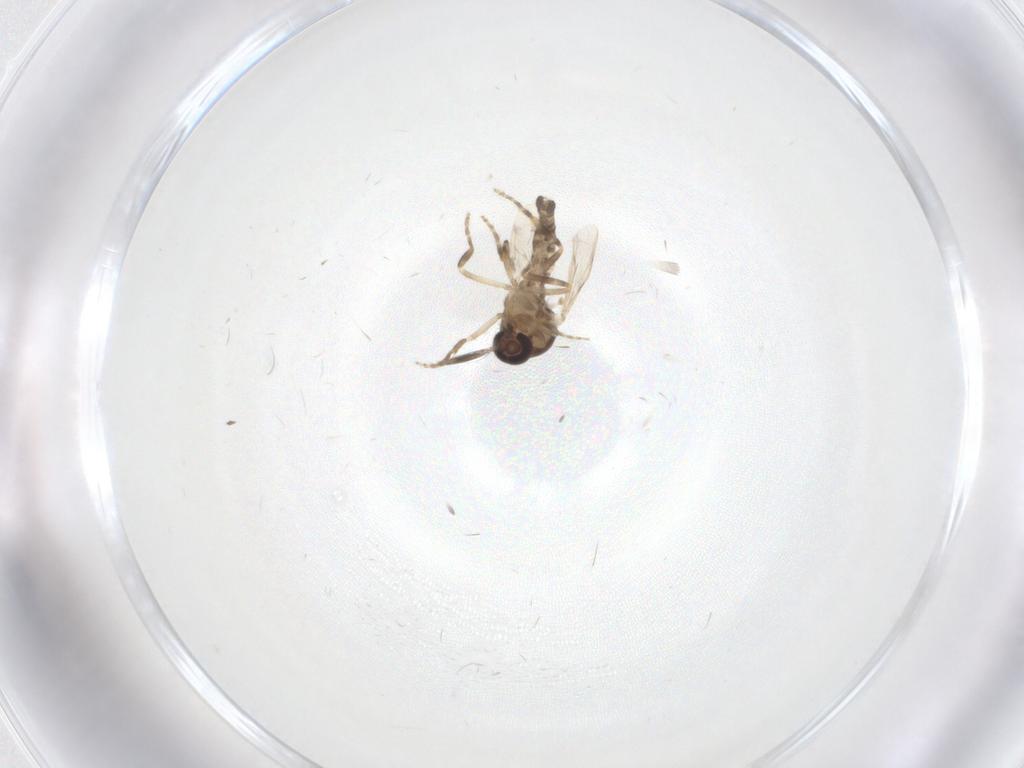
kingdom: Animalia
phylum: Arthropoda
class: Insecta
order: Diptera
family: Ceratopogonidae
